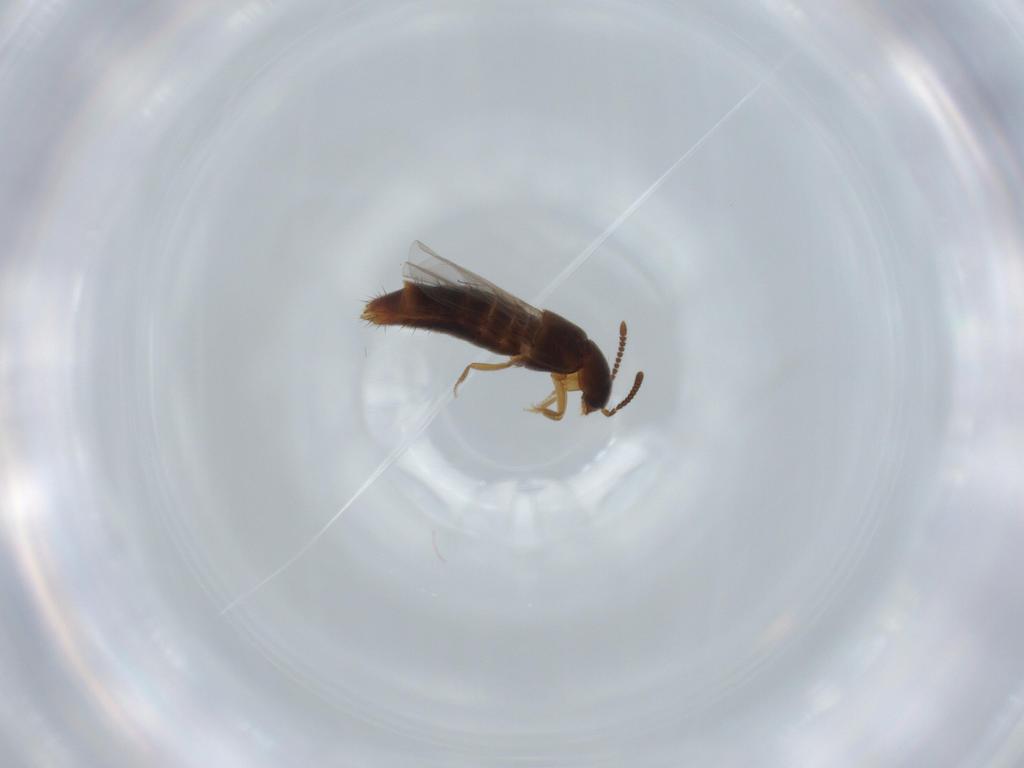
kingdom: Animalia
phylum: Arthropoda
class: Insecta
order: Coleoptera
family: Staphylinidae
